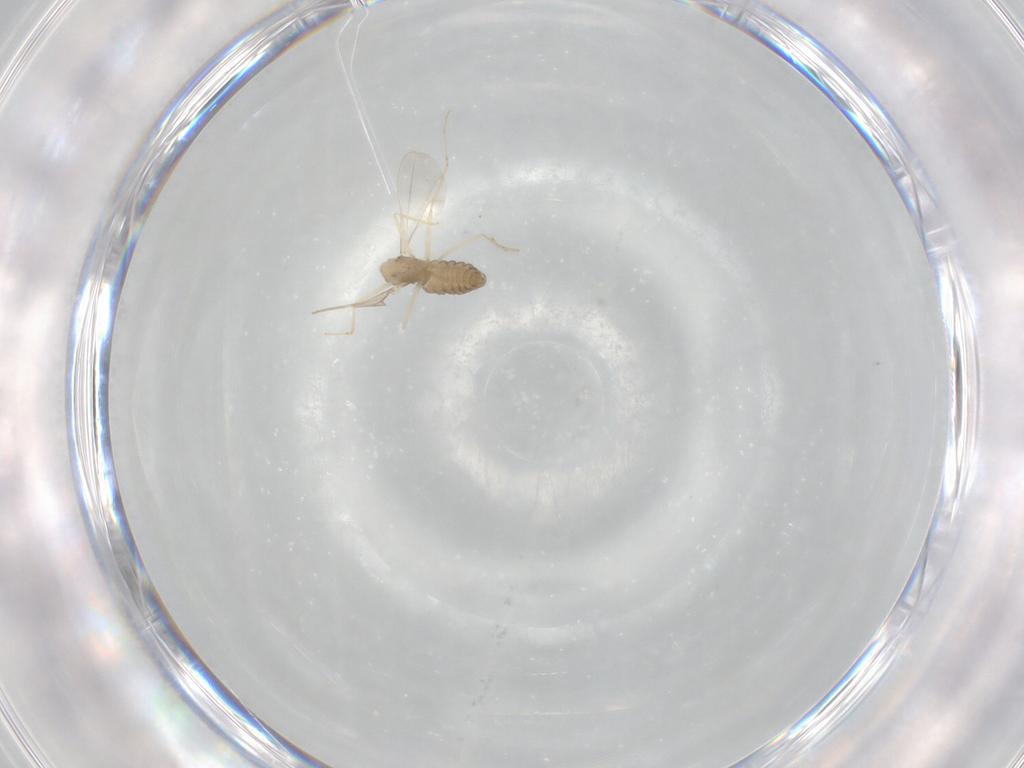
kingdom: Animalia
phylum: Arthropoda
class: Insecta
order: Diptera
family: Cecidomyiidae
